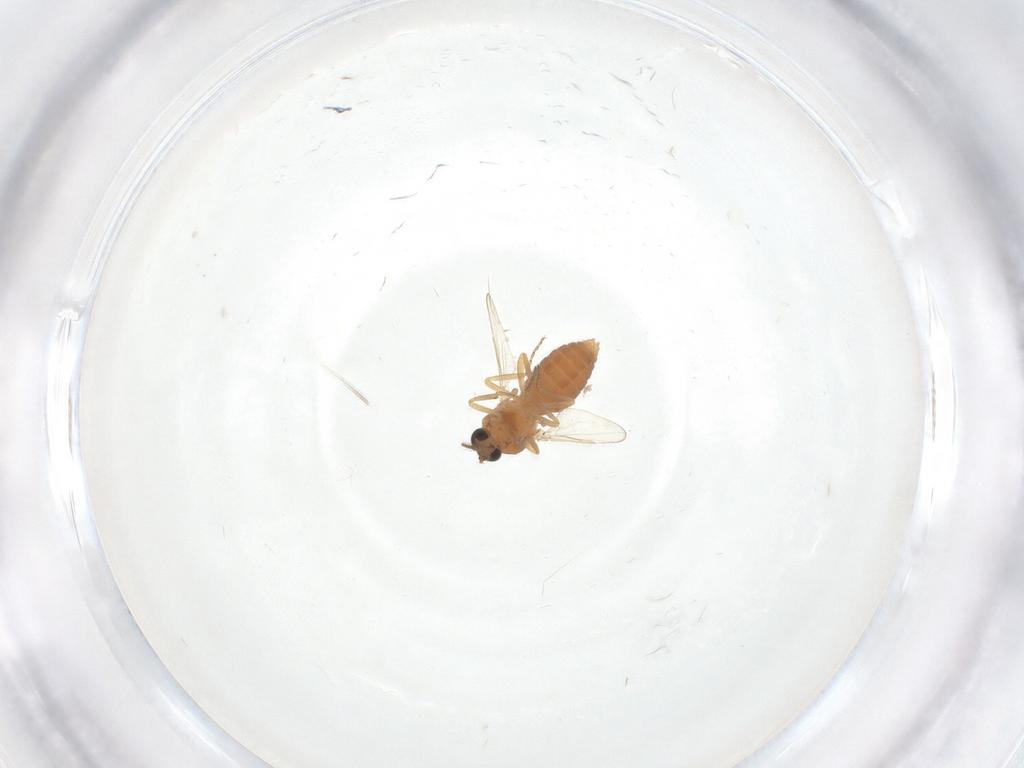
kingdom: Animalia
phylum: Arthropoda
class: Insecta
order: Diptera
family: Ceratopogonidae
